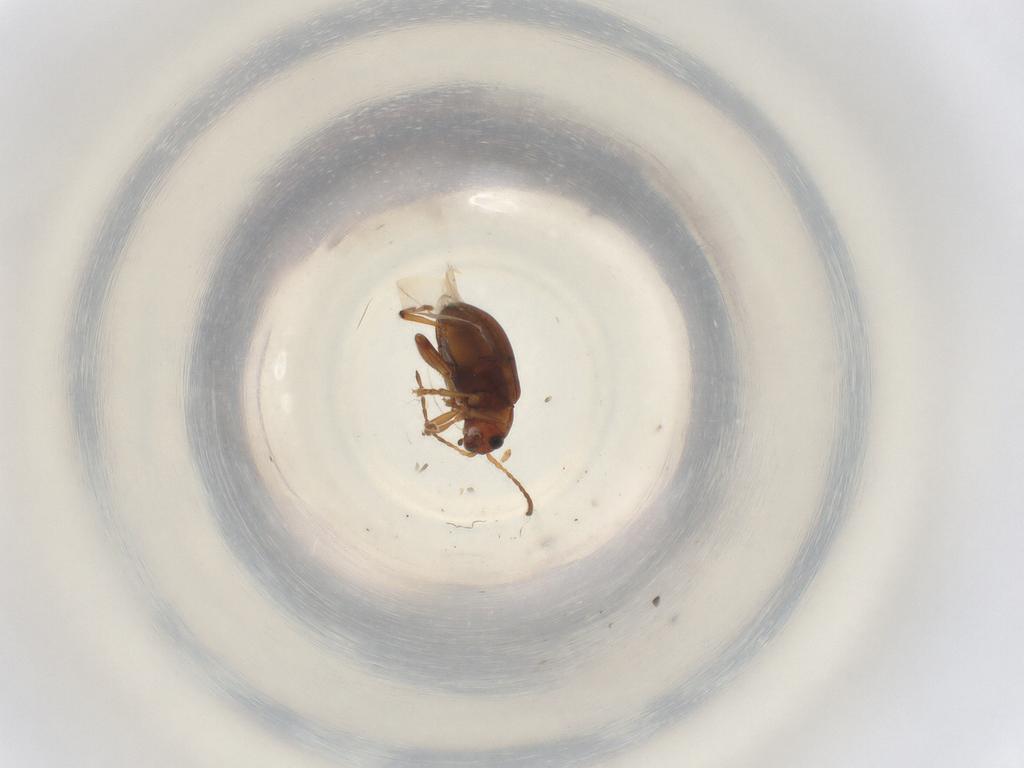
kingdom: Animalia
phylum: Arthropoda
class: Insecta
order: Coleoptera
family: Chrysomelidae
